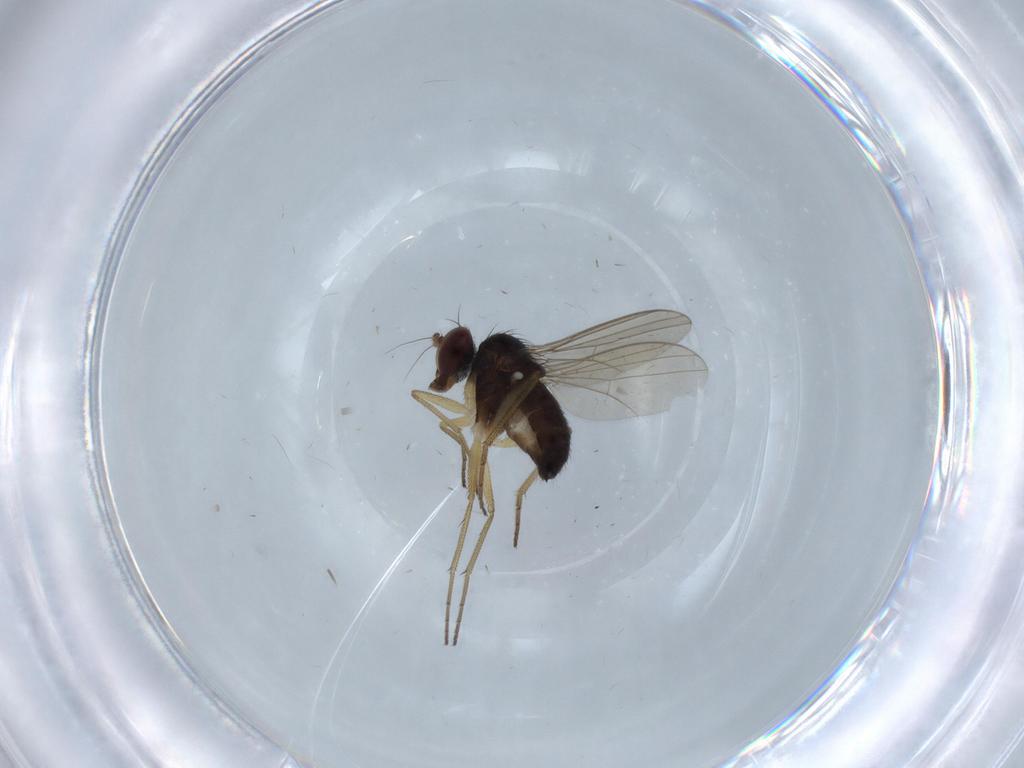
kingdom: Animalia
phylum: Arthropoda
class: Insecta
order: Diptera
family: Dolichopodidae
